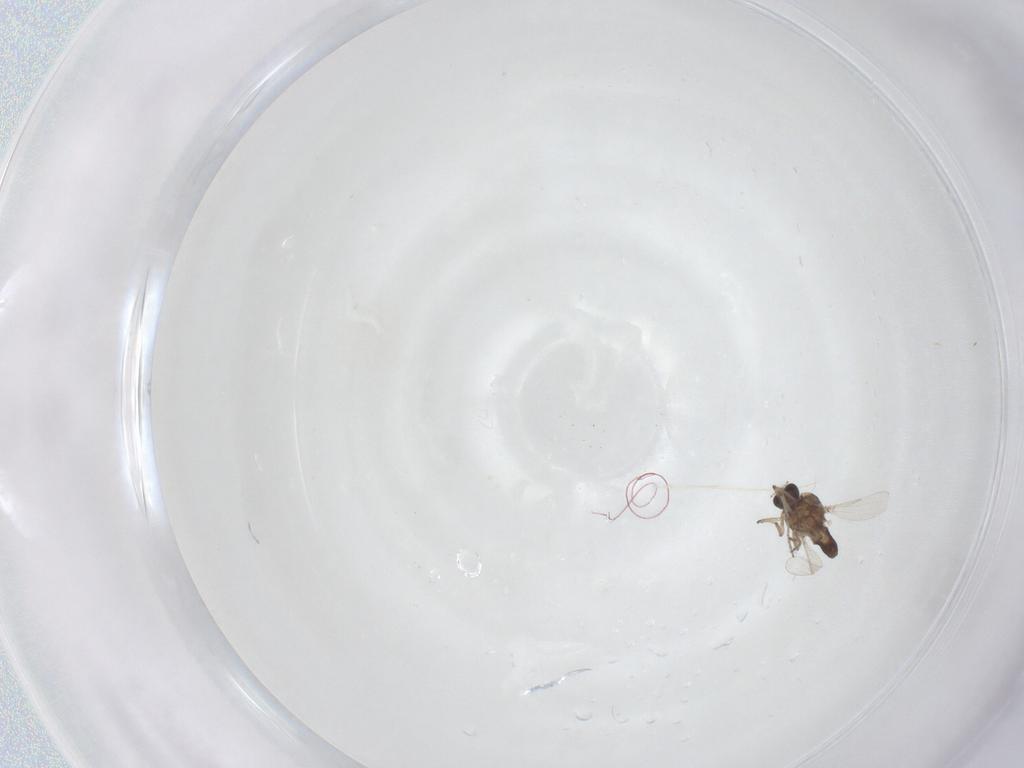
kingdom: Animalia
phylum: Arthropoda
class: Insecta
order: Diptera
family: Ceratopogonidae
